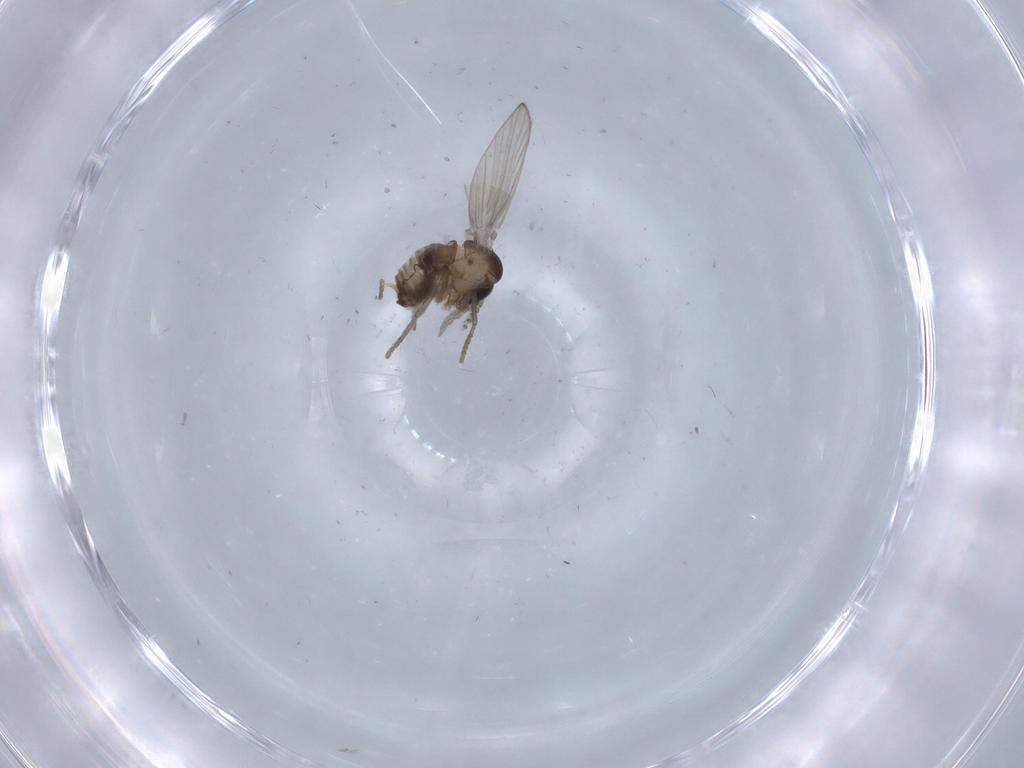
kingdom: Animalia
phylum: Arthropoda
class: Insecta
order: Diptera
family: Psychodidae
